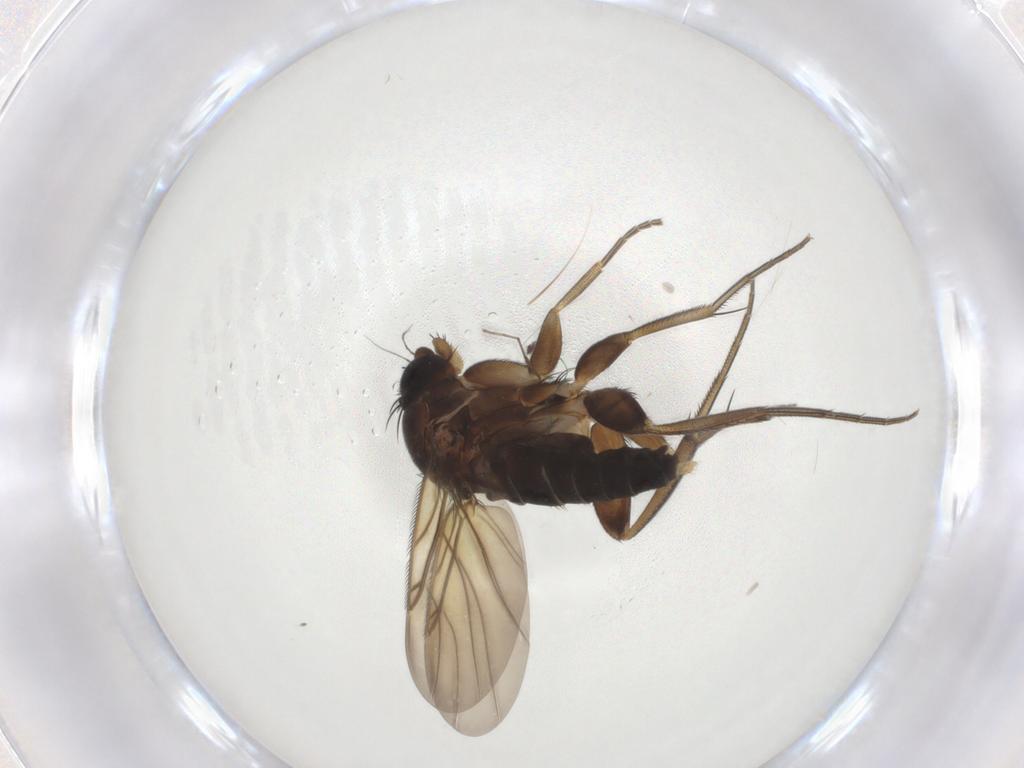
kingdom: Animalia
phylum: Arthropoda
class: Insecta
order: Diptera
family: Phoridae
